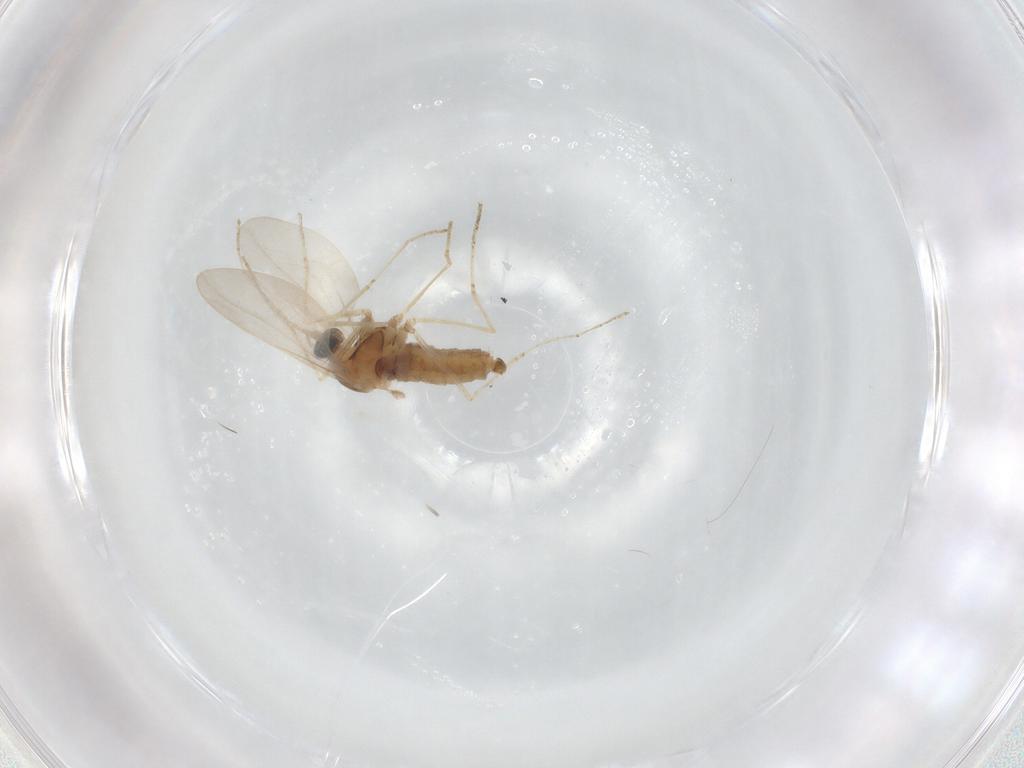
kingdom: Animalia
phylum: Arthropoda
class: Insecta
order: Diptera
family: Cecidomyiidae
